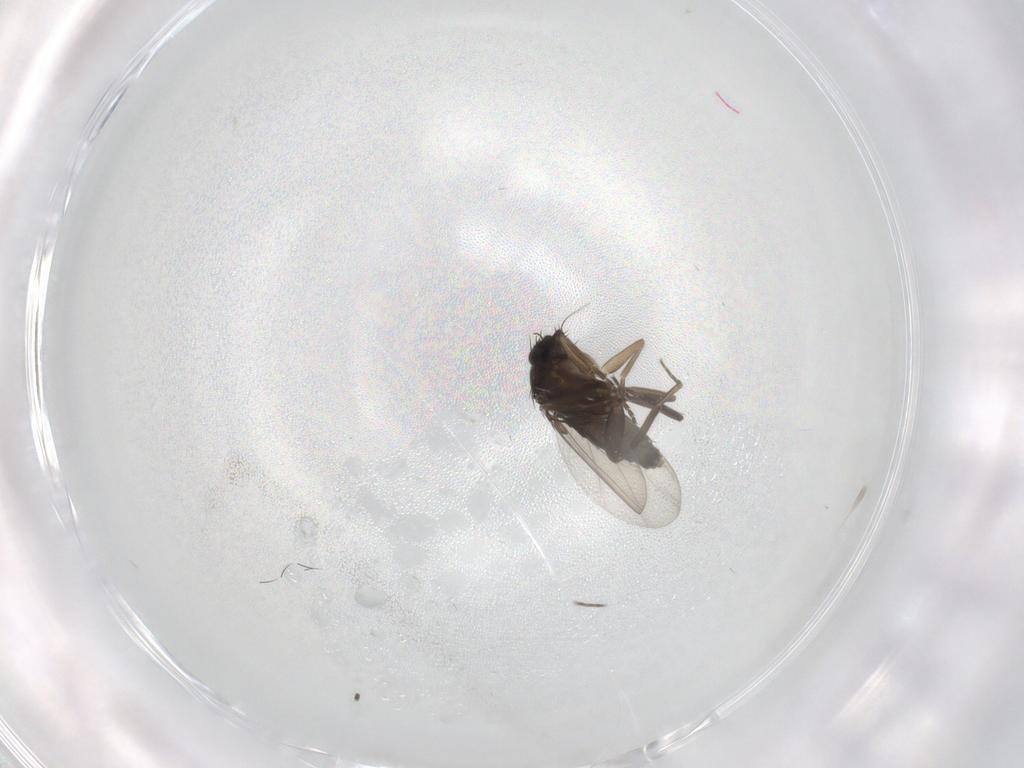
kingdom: Animalia
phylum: Arthropoda
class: Insecta
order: Diptera
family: Phoridae
